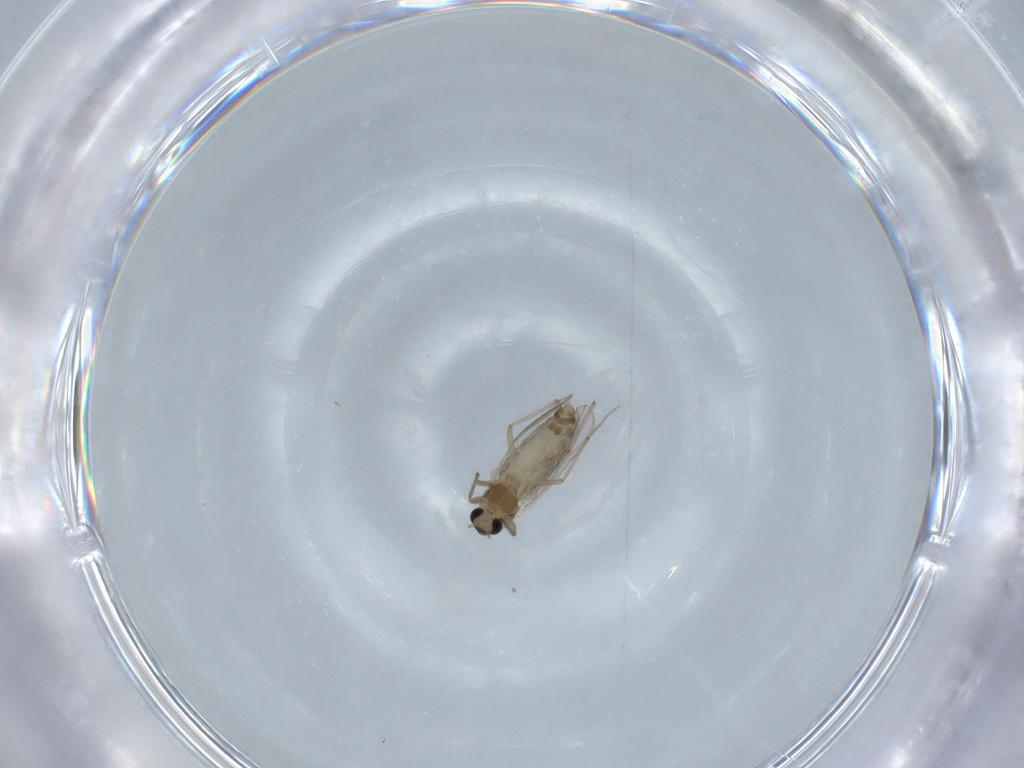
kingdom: Animalia
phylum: Arthropoda
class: Insecta
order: Diptera
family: Chironomidae
